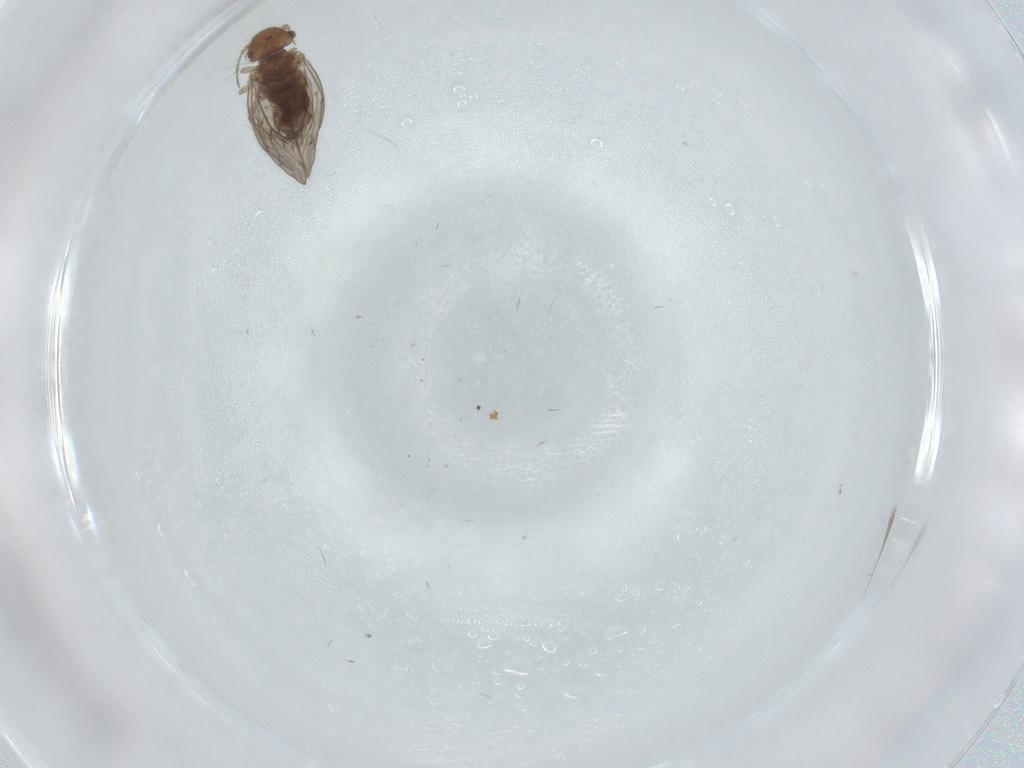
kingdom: Animalia
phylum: Arthropoda
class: Insecta
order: Psocodea
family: Ectopsocidae
